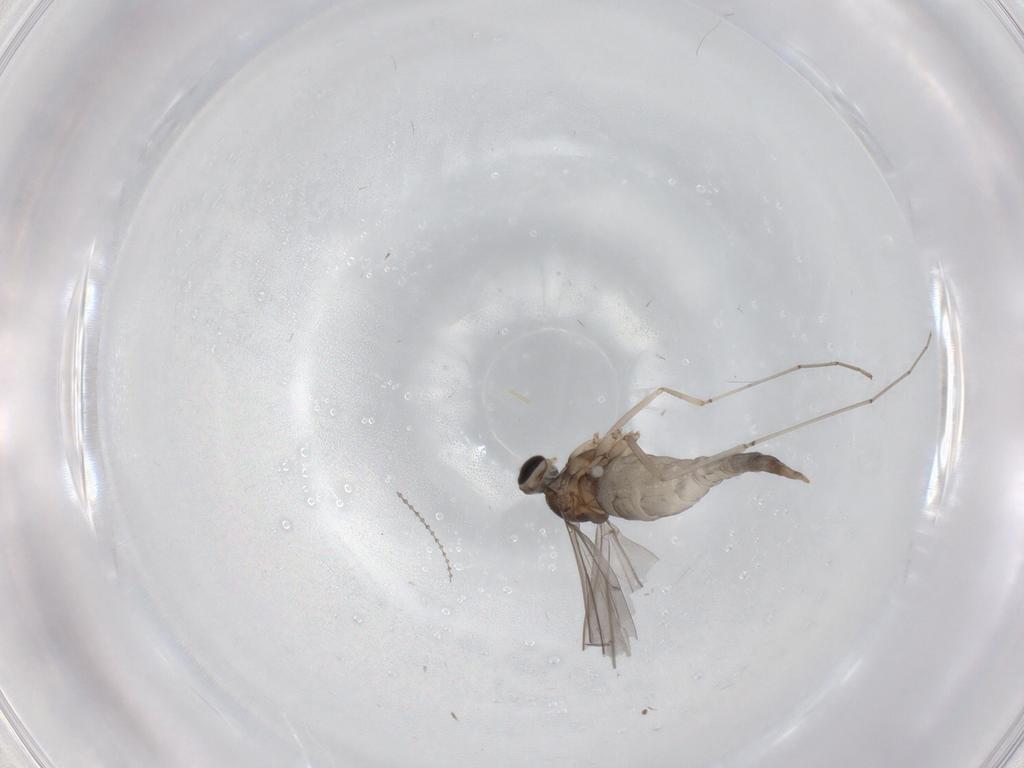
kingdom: Animalia
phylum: Arthropoda
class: Insecta
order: Diptera
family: Cecidomyiidae
